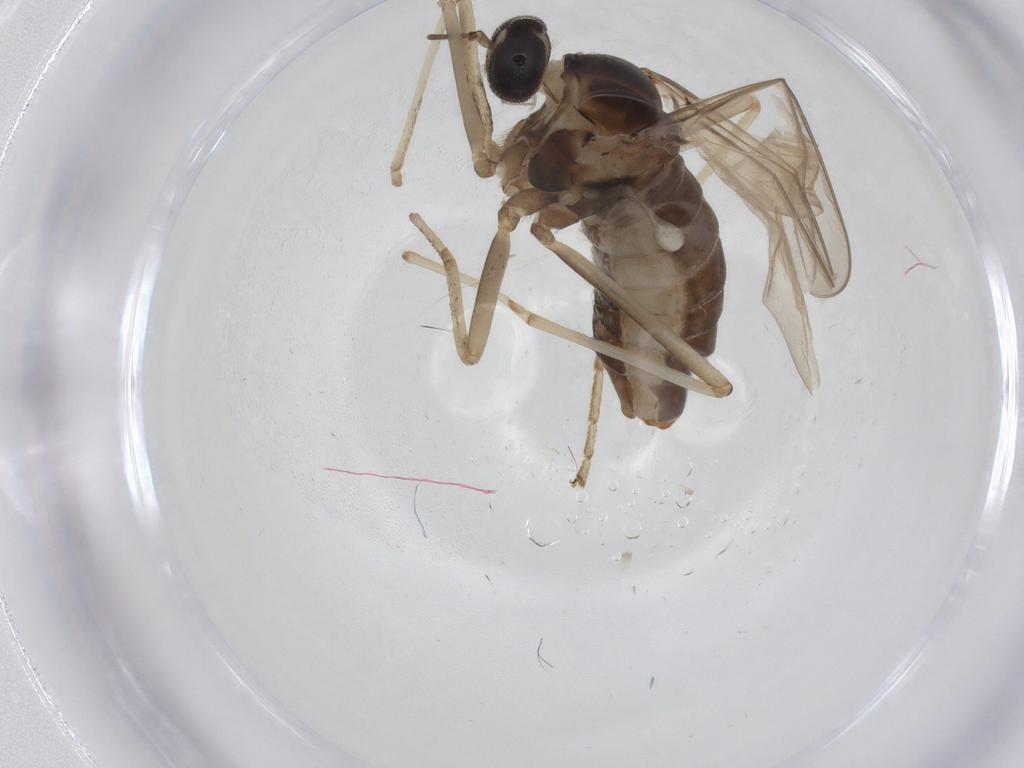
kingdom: Animalia
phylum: Arthropoda
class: Insecta
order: Diptera
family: Cecidomyiidae
